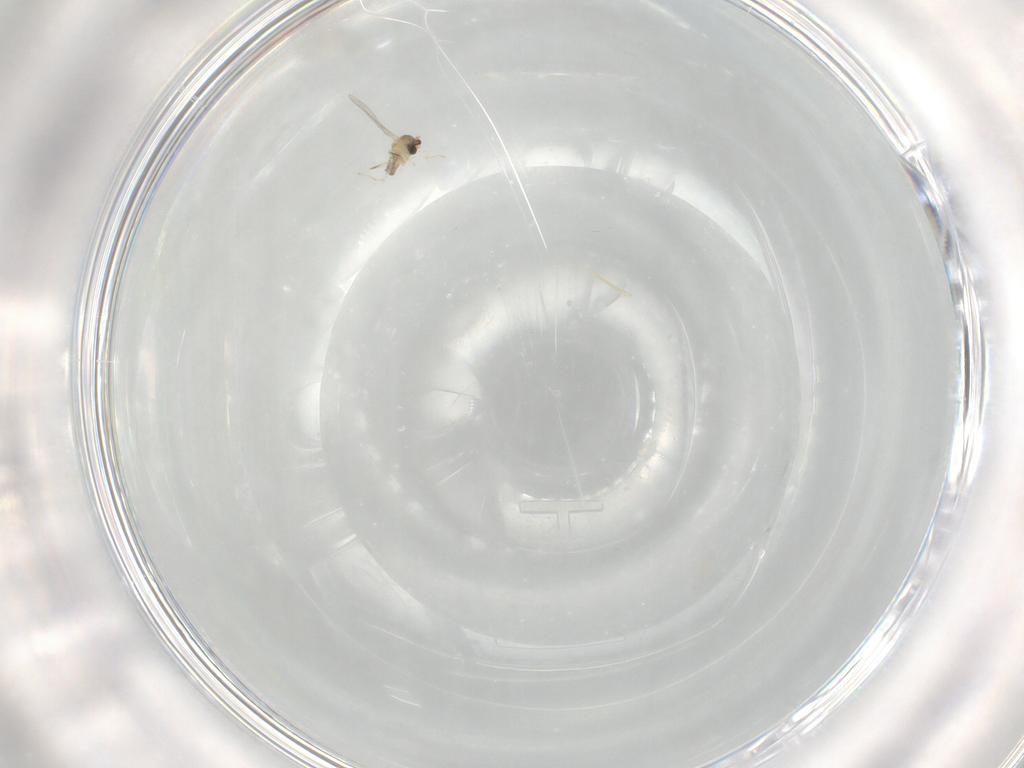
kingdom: Animalia
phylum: Arthropoda
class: Insecta
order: Diptera
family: Cecidomyiidae
